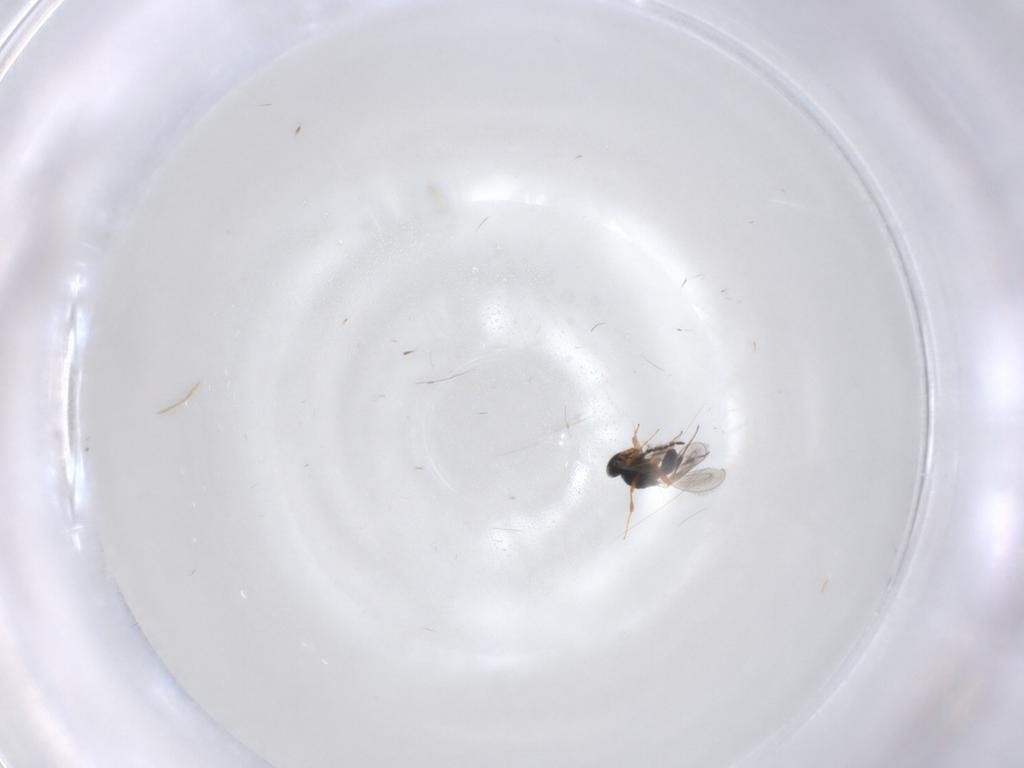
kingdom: Animalia
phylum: Arthropoda
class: Insecta
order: Hymenoptera
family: Platygastridae
